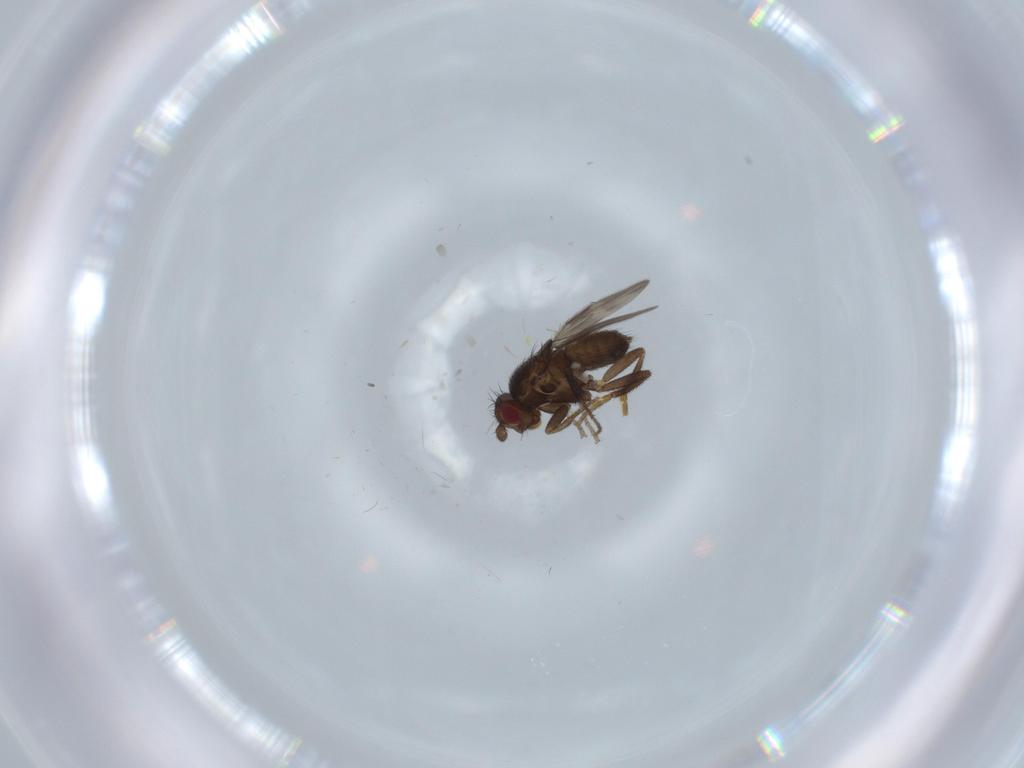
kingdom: Animalia
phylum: Arthropoda
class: Insecta
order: Diptera
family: Sphaeroceridae
